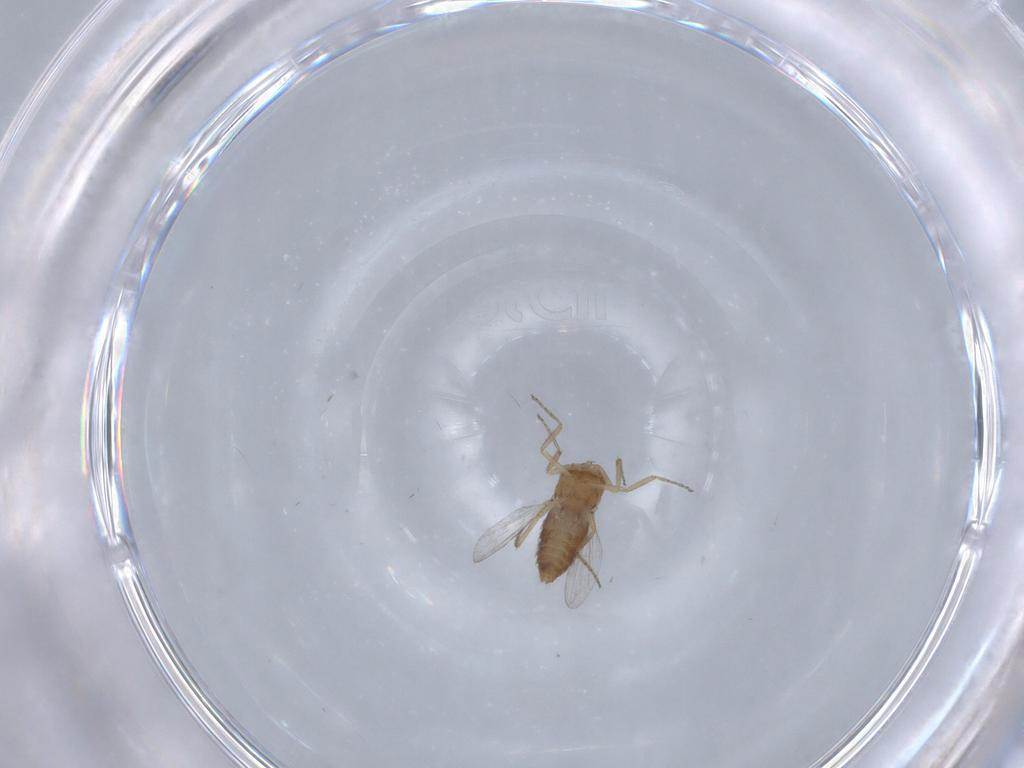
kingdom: Animalia
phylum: Arthropoda
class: Insecta
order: Diptera
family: Ceratopogonidae
